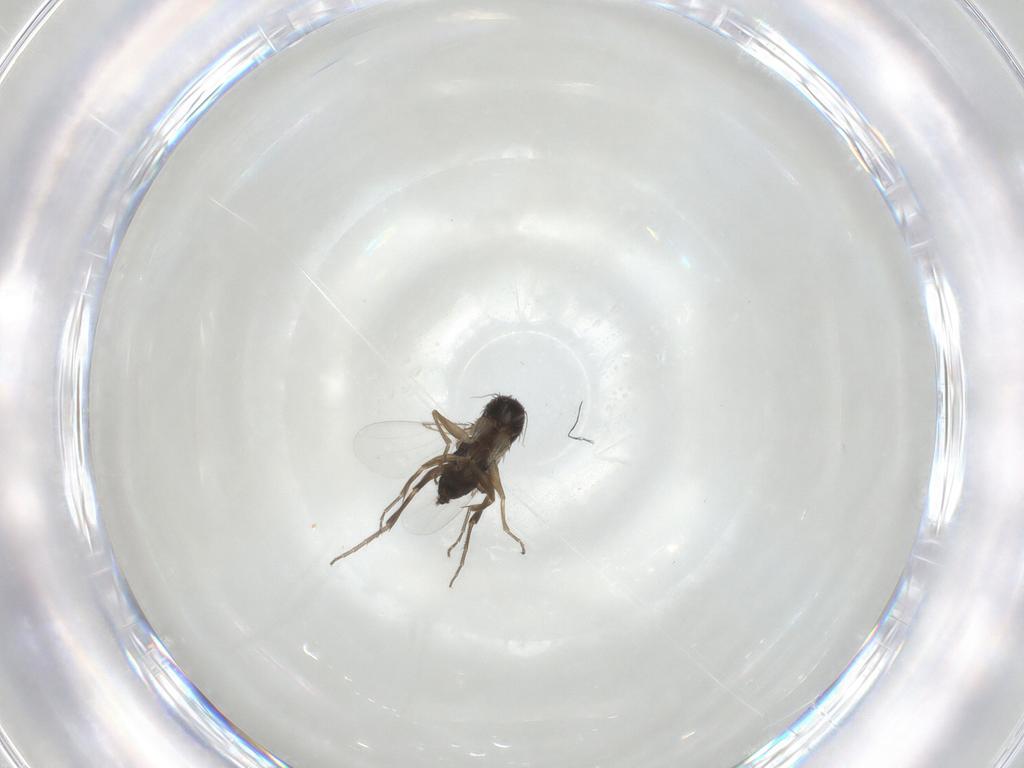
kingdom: Animalia
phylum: Arthropoda
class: Insecta
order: Diptera
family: Phoridae
